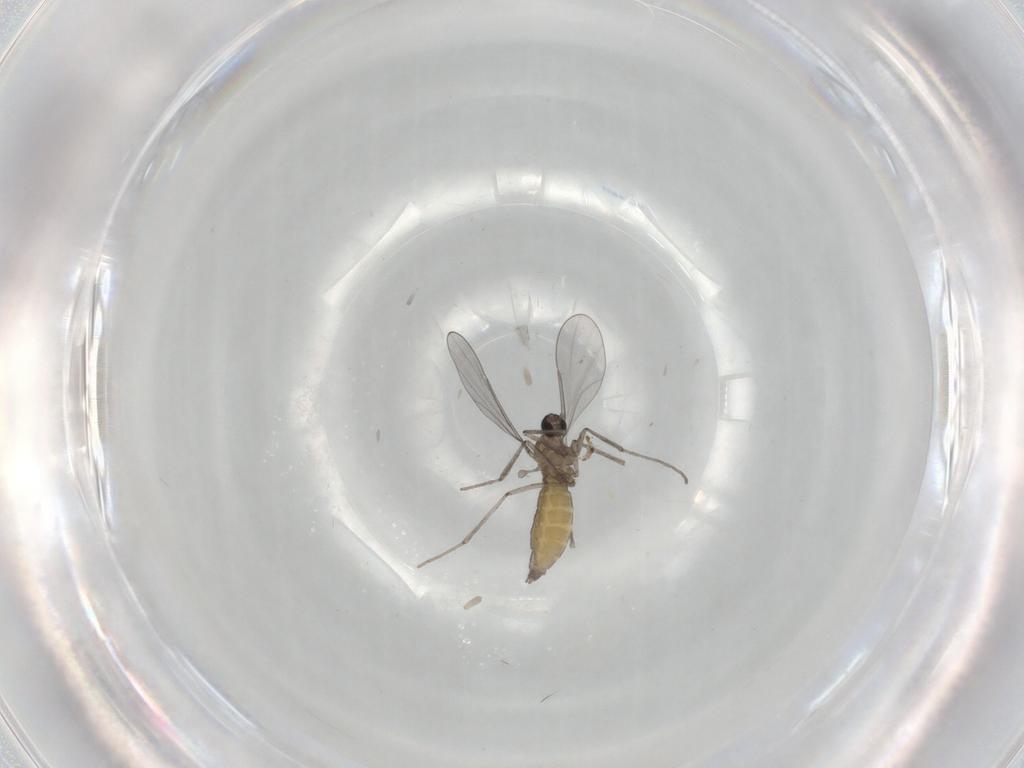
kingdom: Animalia
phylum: Arthropoda
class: Insecta
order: Diptera
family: Cecidomyiidae
